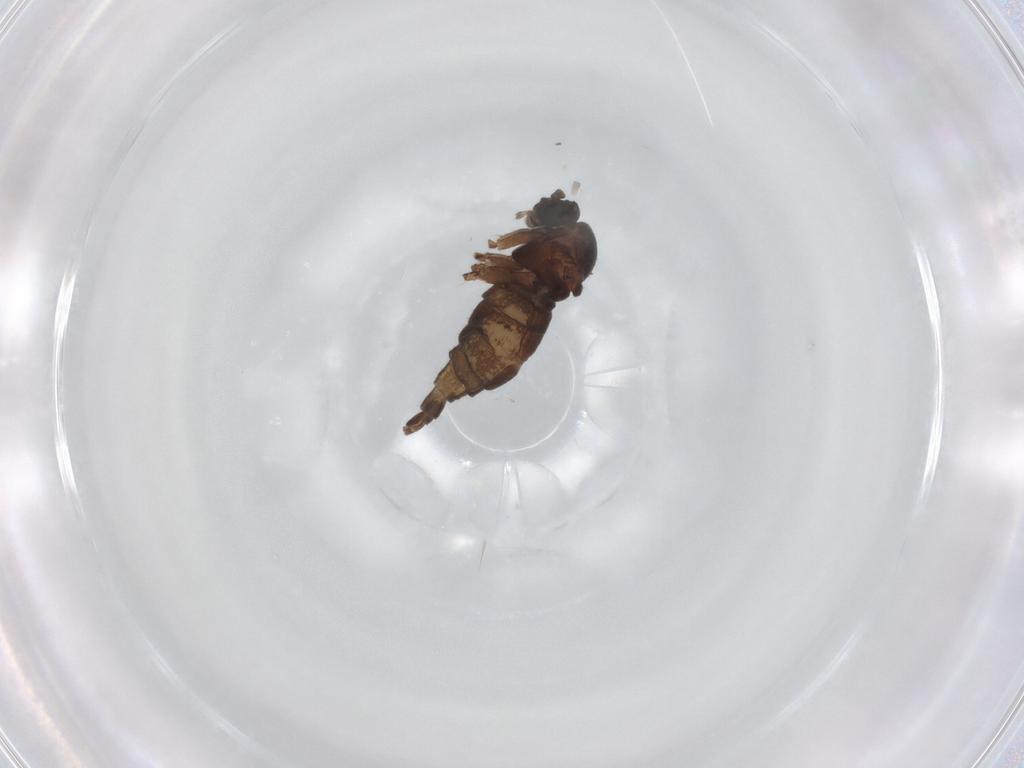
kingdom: Animalia
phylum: Arthropoda
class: Insecta
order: Diptera
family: Sciaridae
